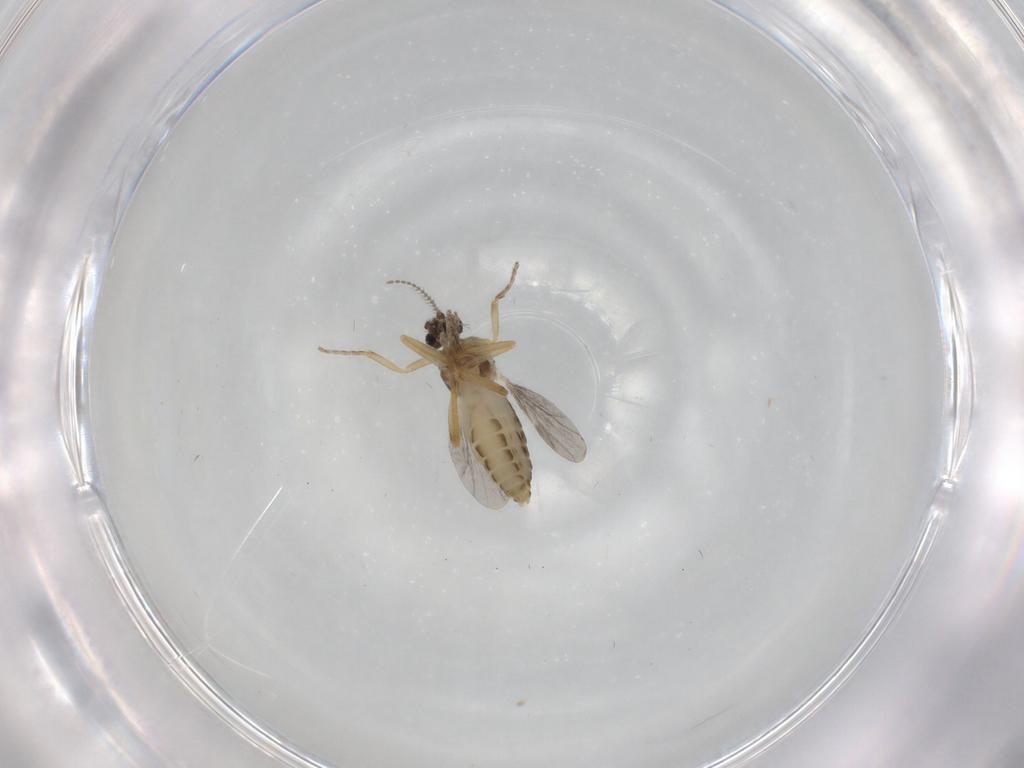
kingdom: Animalia
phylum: Arthropoda
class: Insecta
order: Diptera
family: Ceratopogonidae
